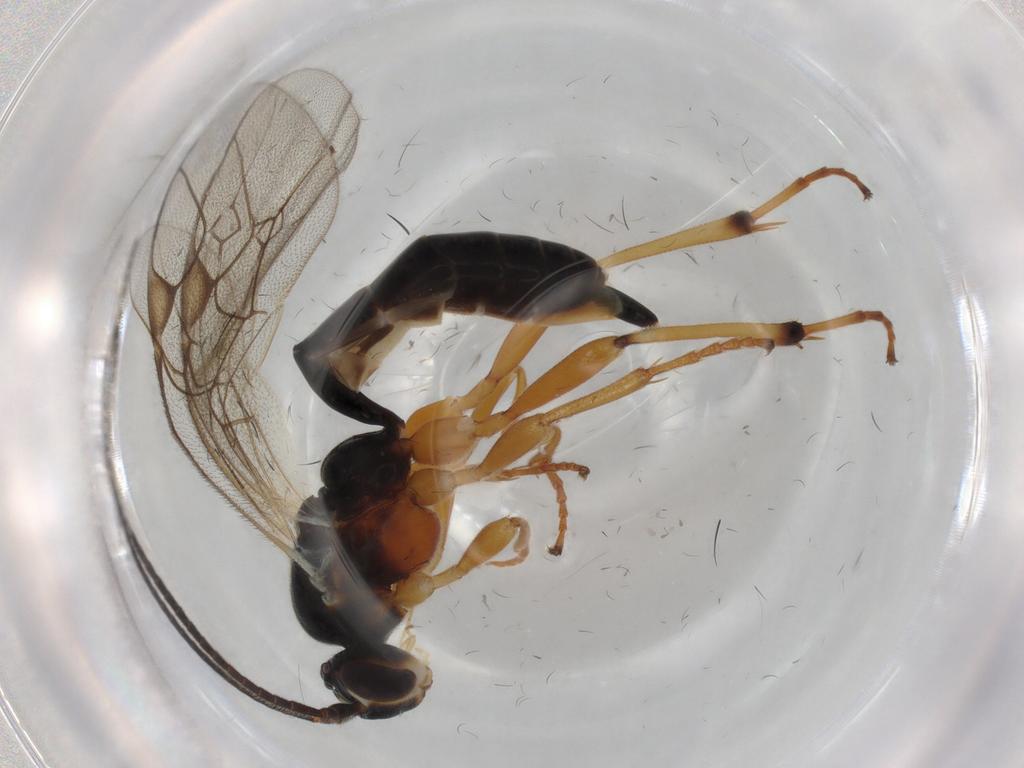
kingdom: Animalia
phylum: Arthropoda
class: Insecta
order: Hymenoptera
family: Ichneumonidae
